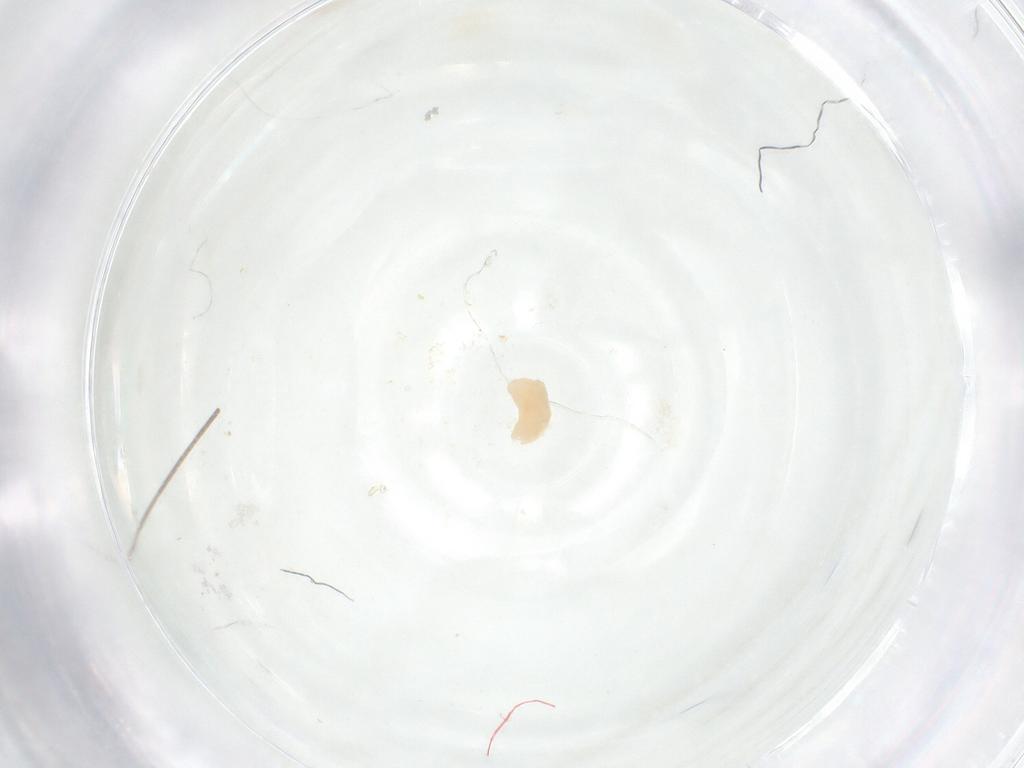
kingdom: Animalia
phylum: Arthropoda
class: Insecta
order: Diptera
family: Fergusoninidae
